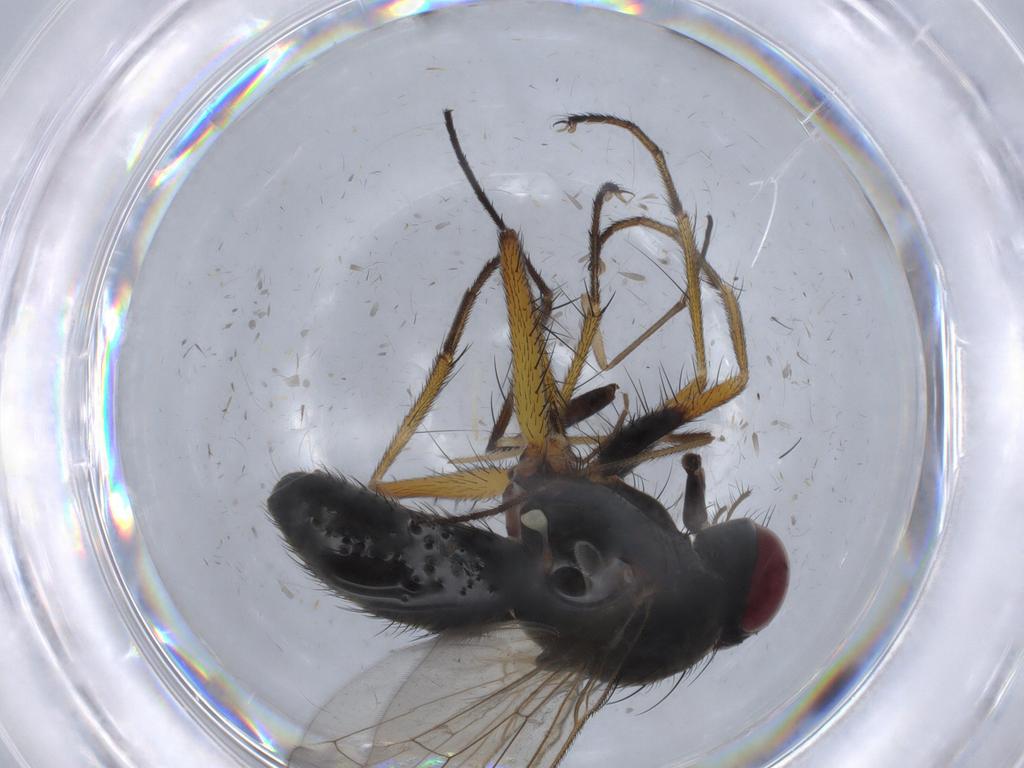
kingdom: Animalia
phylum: Arthropoda
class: Insecta
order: Diptera
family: Muscidae
